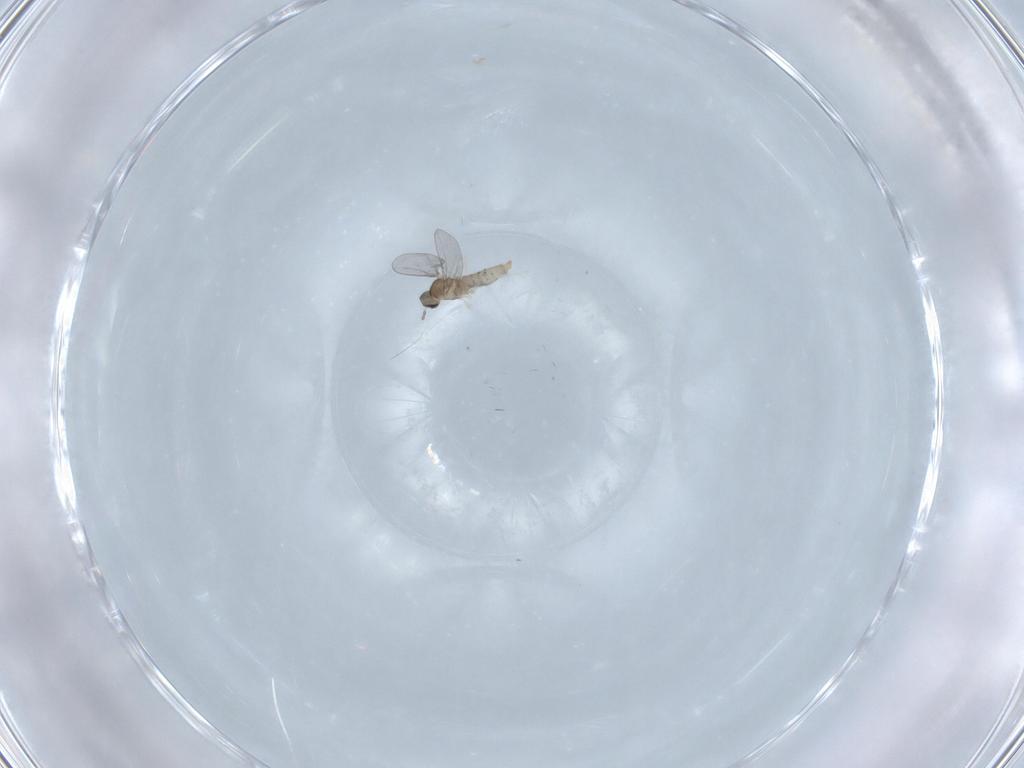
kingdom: Animalia
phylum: Arthropoda
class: Insecta
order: Diptera
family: Cecidomyiidae
